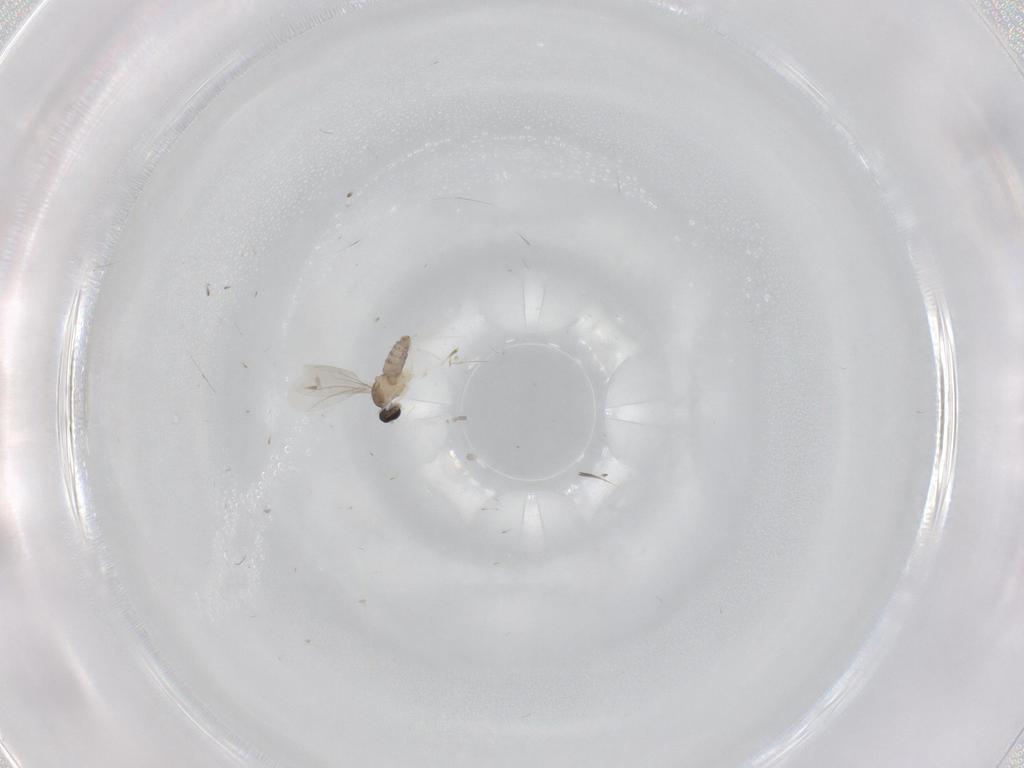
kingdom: Animalia
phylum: Arthropoda
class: Insecta
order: Diptera
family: Cecidomyiidae
